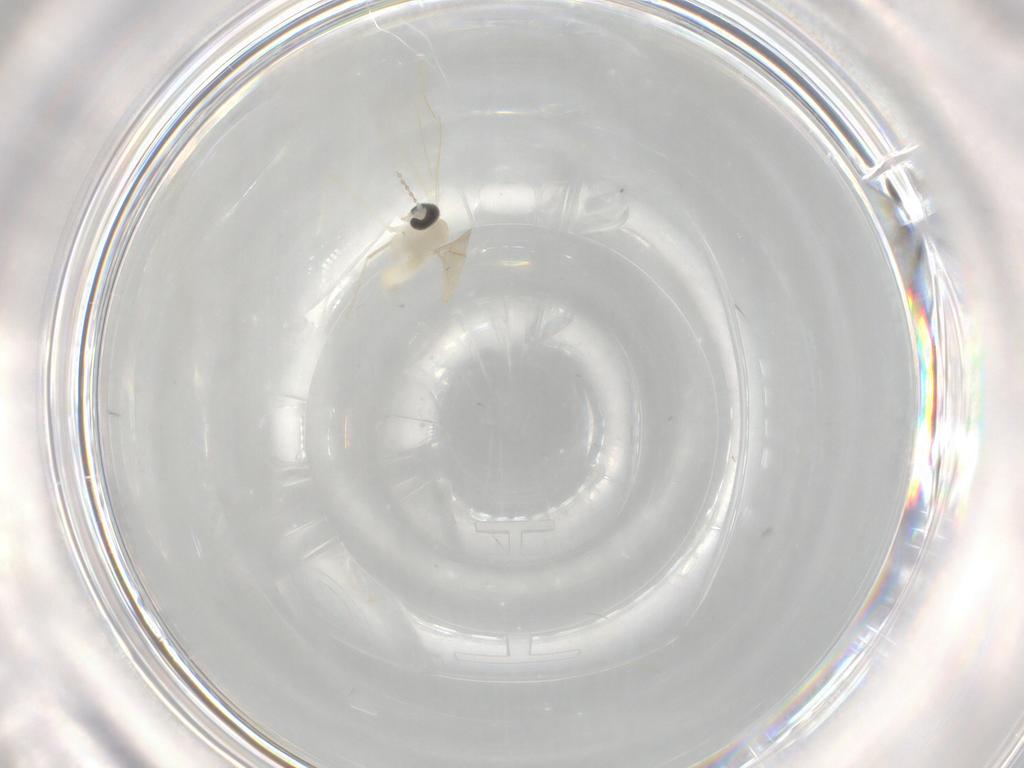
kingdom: Animalia
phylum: Arthropoda
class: Insecta
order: Diptera
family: Cecidomyiidae
